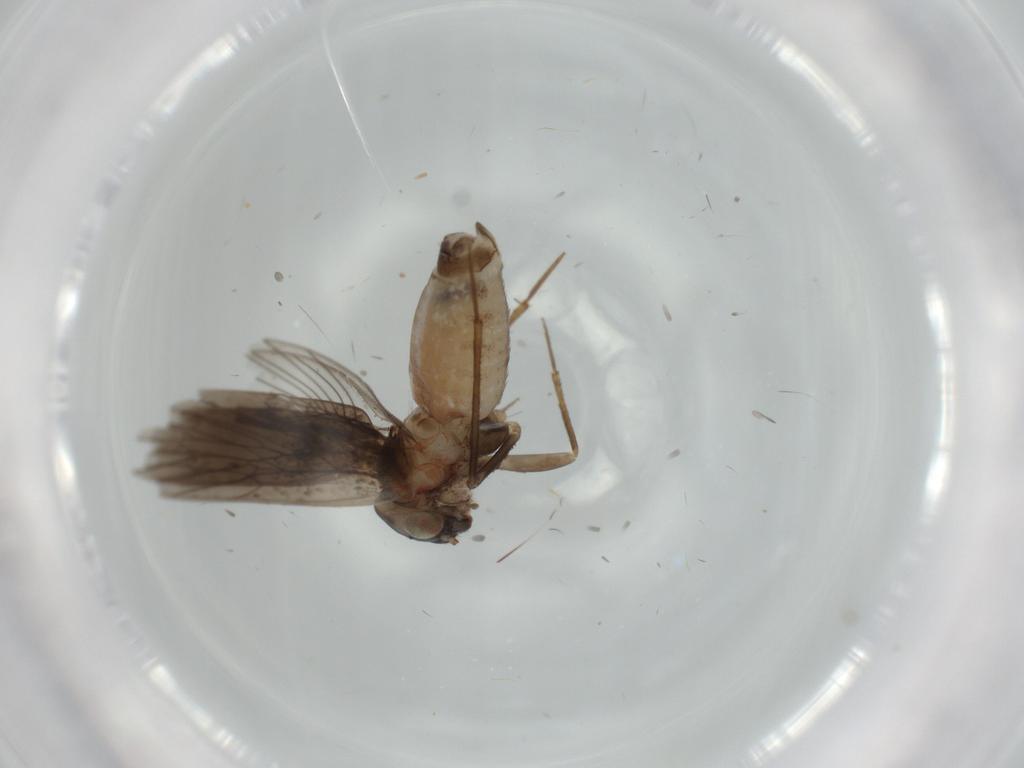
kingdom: Animalia
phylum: Arthropoda
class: Insecta
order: Psocodea
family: Lepidopsocidae
